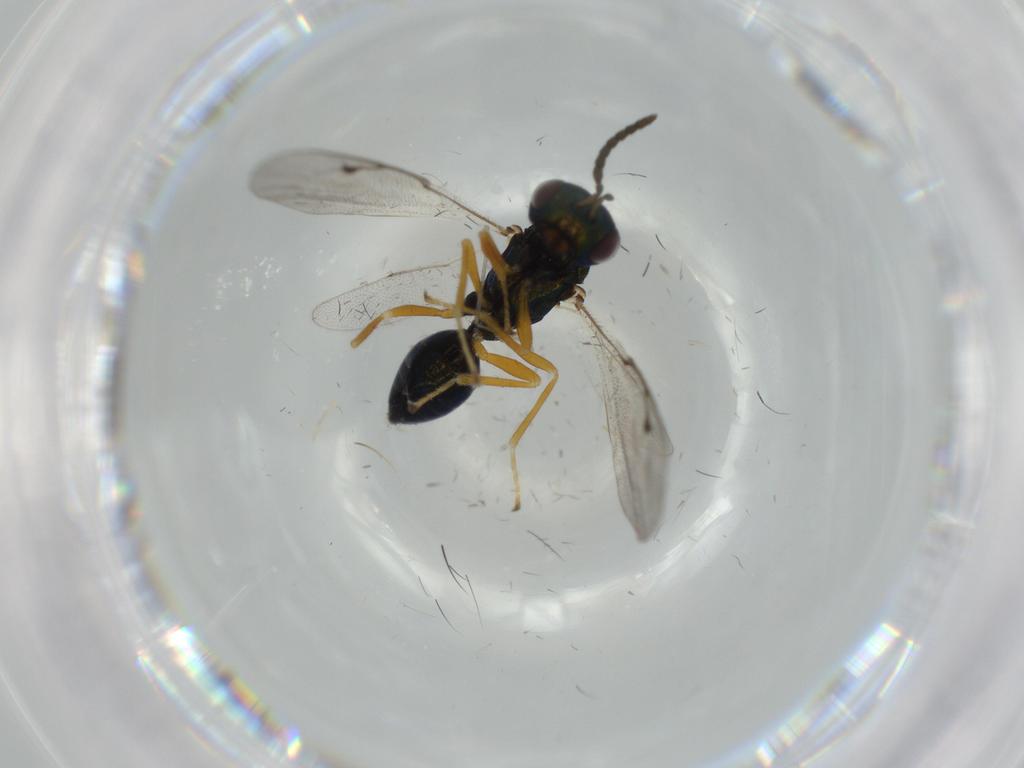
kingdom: Animalia
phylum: Arthropoda
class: Insecta
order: Hymenoptera
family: Pteromalidae
